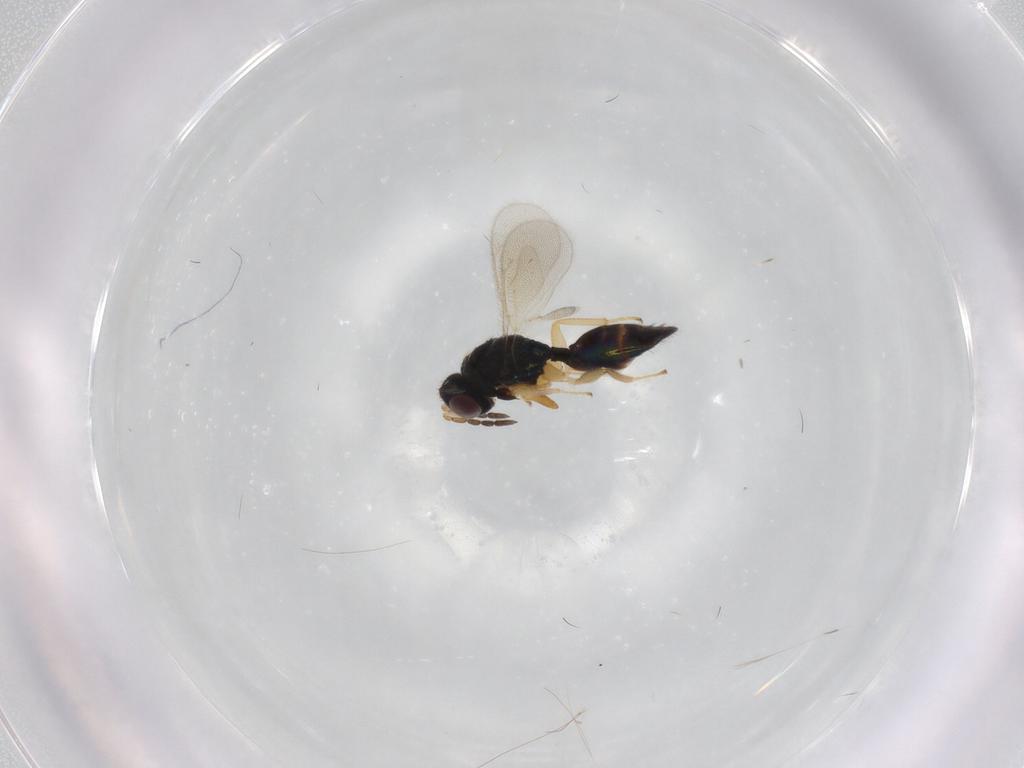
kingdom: Animalia
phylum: Arthropoda
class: Insecta
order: Hymenoptera
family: Eulophidae
